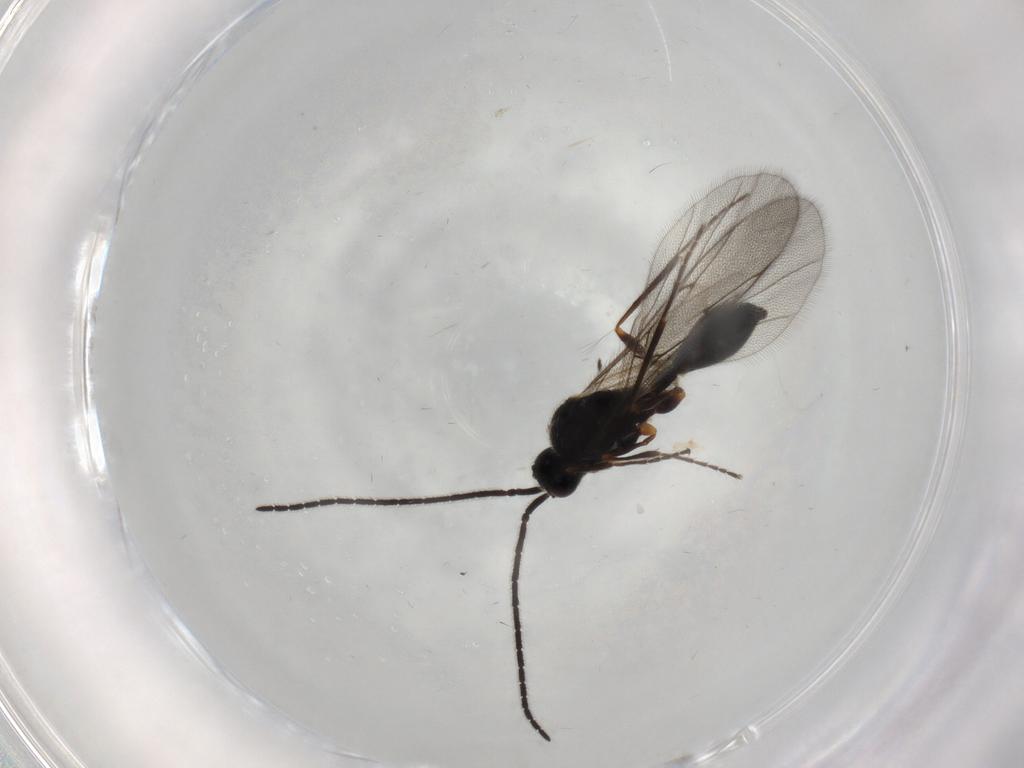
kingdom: Animalia
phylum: Arthropoda
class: Insecta
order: Hymenoptera
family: Diapriidae
